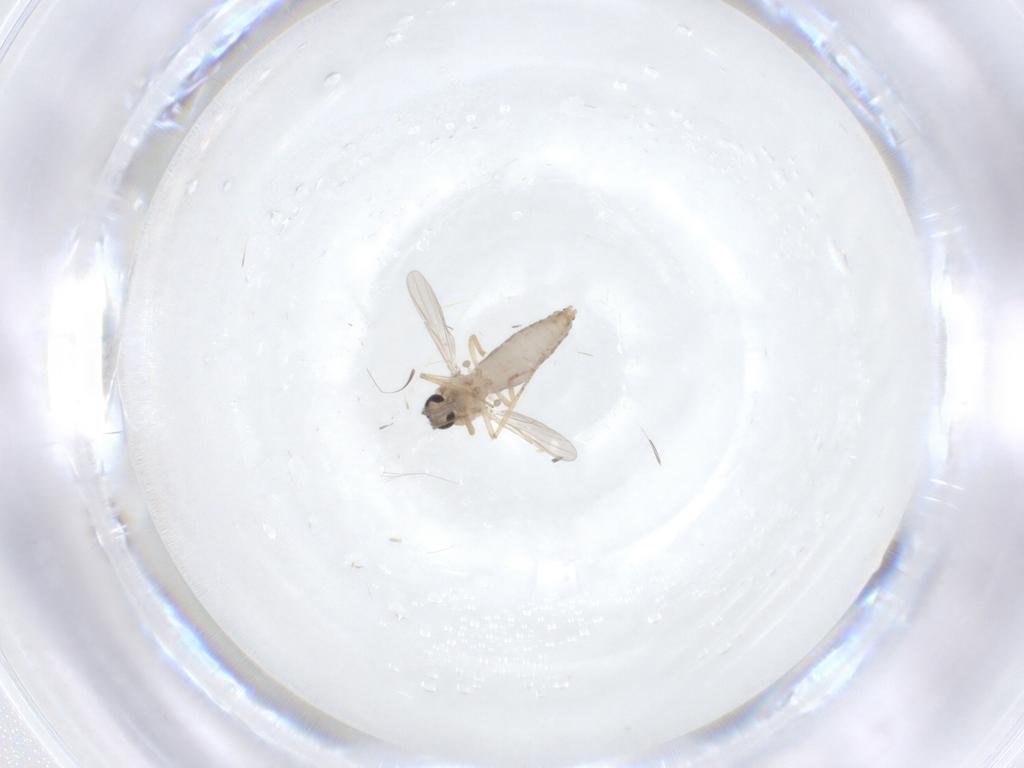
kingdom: Animalia
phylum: Arthropoda
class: Insecta
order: Diptera
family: Ceratopogonidae
